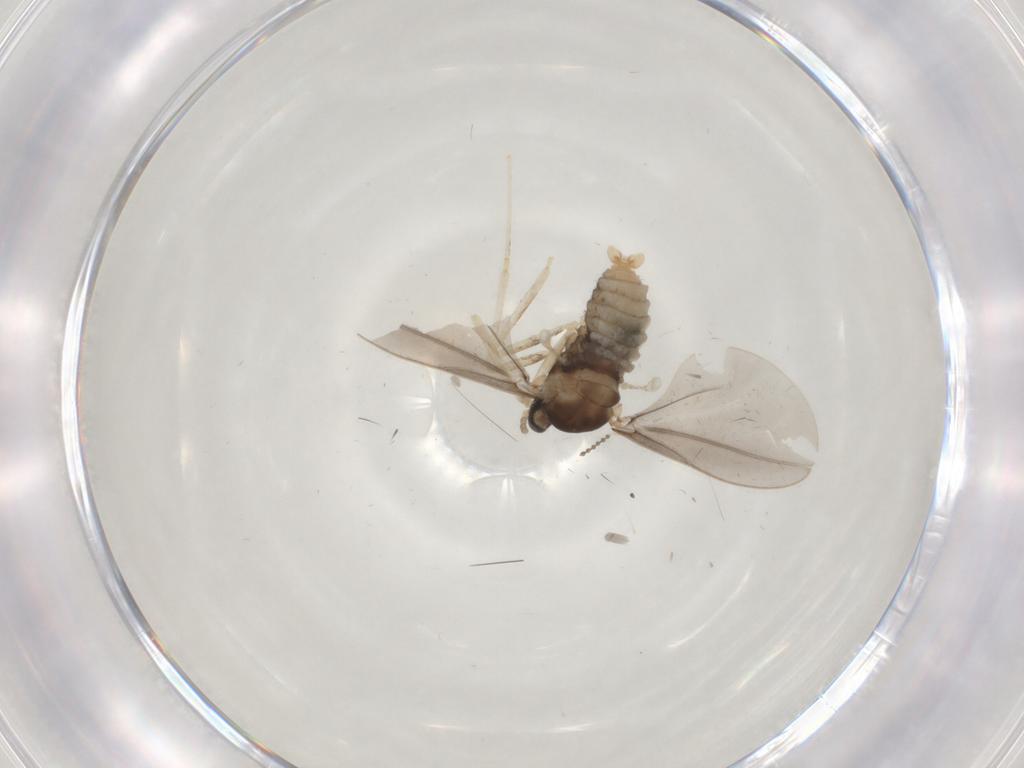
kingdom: Animalia
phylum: Arthropoda
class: Insecta
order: Diptera
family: Cecidomyiidae
